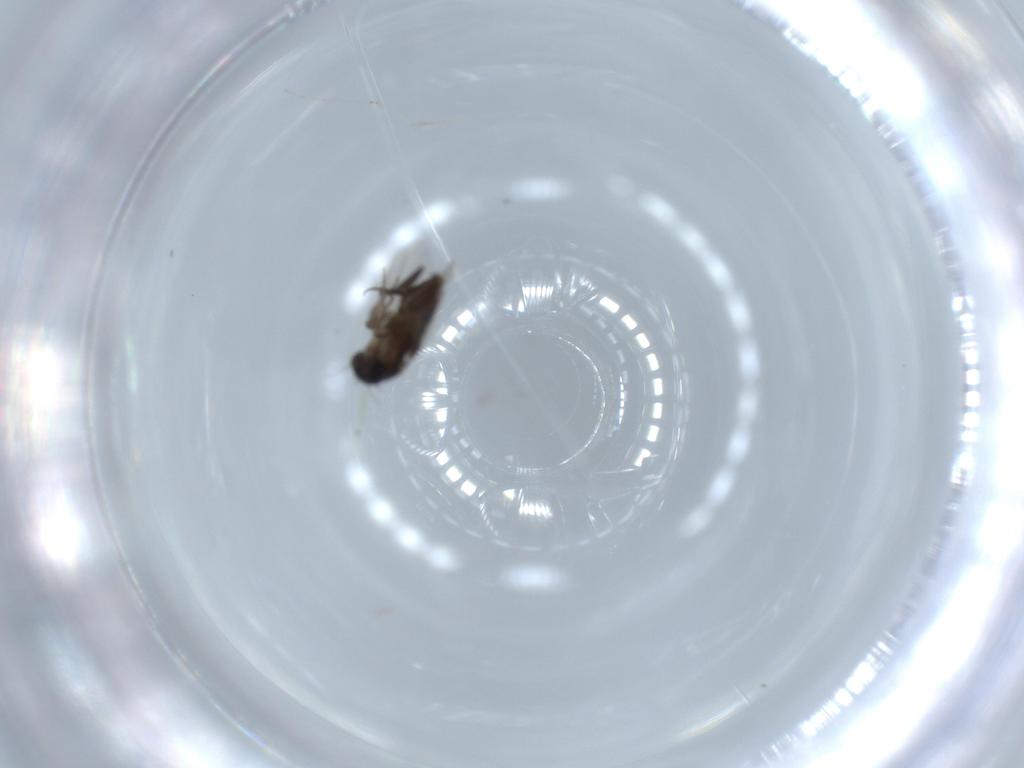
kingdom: Animalia
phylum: Arthropoda
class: Insecta
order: Diptera
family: Phoridae
